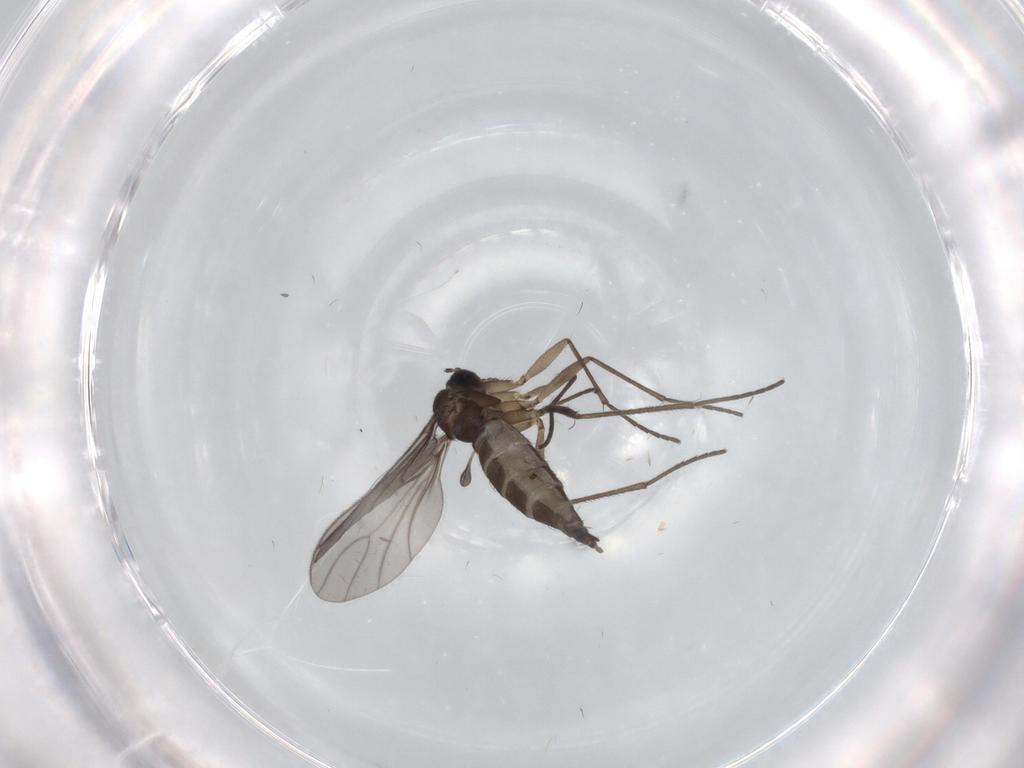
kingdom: Animalia
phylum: Arthropoda
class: Insecta
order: Diptera
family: Sciaridae
